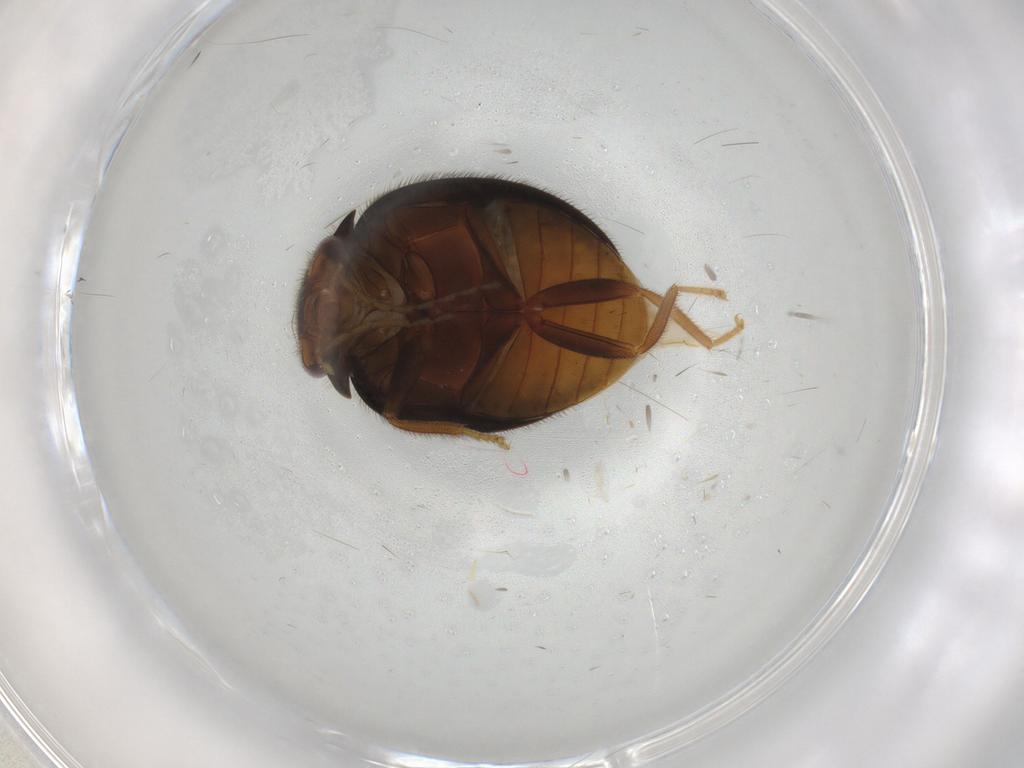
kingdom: Animalia
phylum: Arthropoda
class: Insecta
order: Coleoptera
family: Scirtidae
